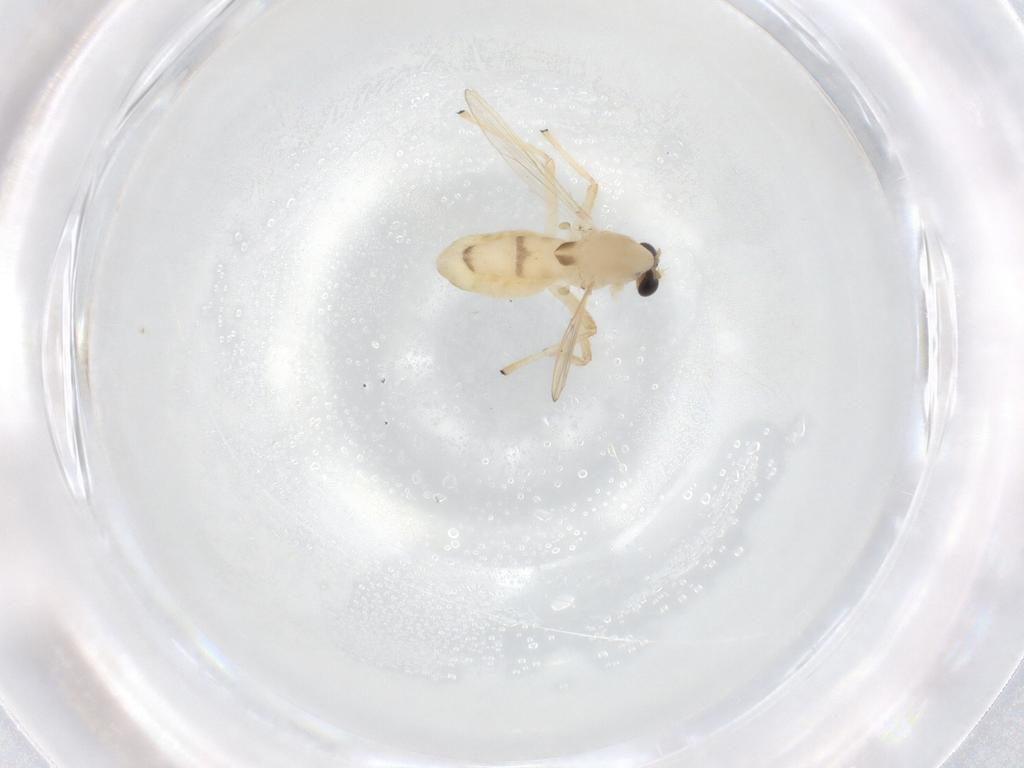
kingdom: Animalia
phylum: Arthropoda
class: Insecta
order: Diptera
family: Chironomidae
